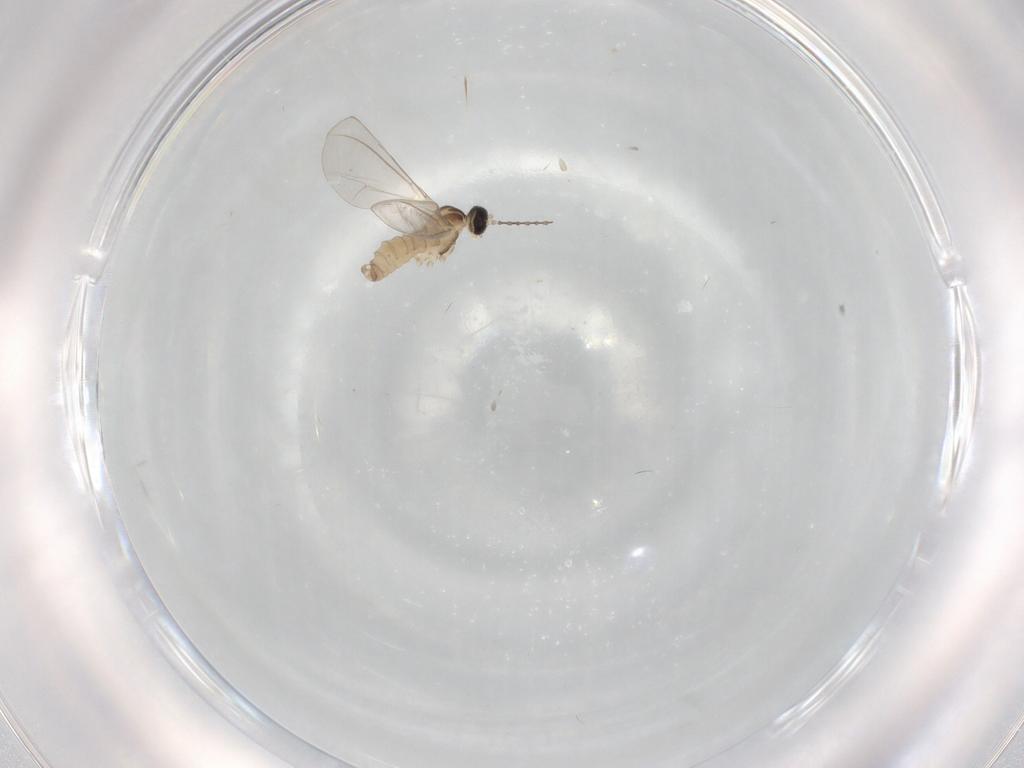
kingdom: Animalia
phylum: Arthropoda
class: Insecta
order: Diptera
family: Cecidomyiidae
